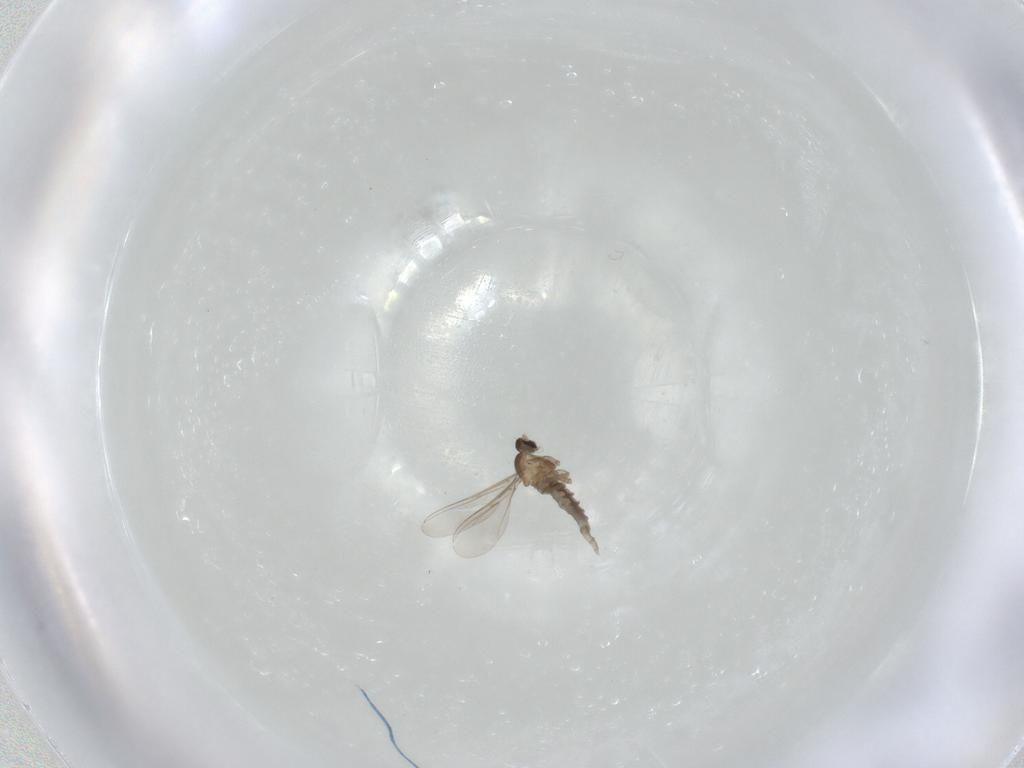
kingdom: Animalia
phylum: Arthropoda
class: Insecta
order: Diptera
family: Cecidomyiidae
